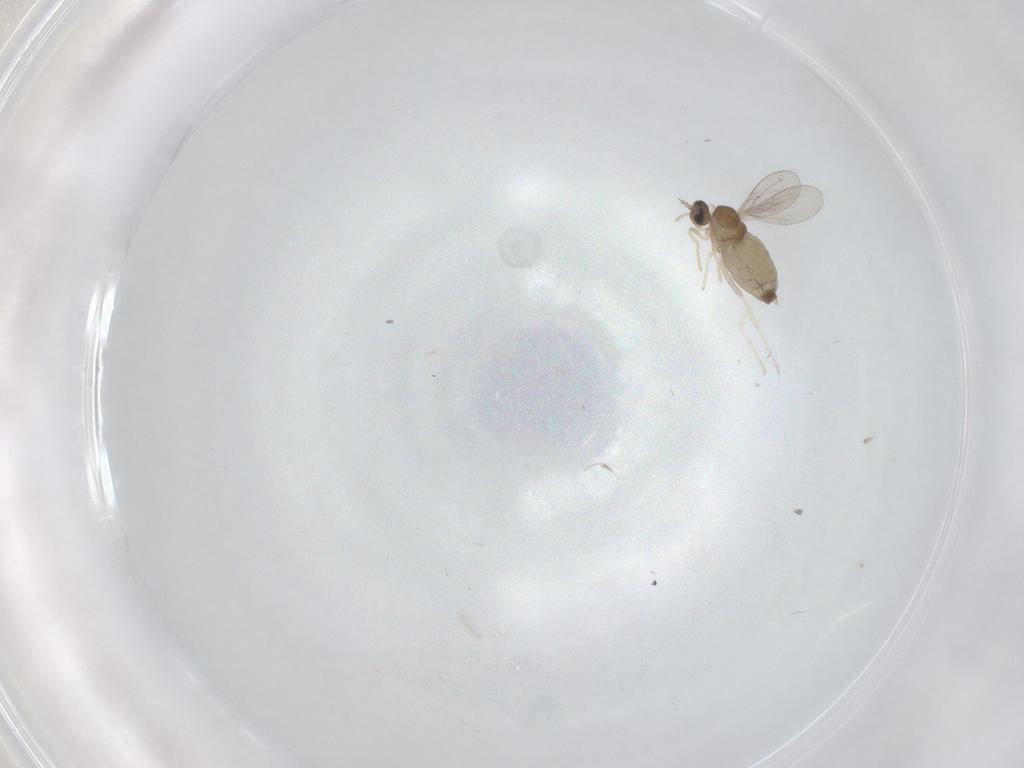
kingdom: Animalia
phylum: Arthropoda
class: Insecta
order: Diptera
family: Cecidomyiidae
